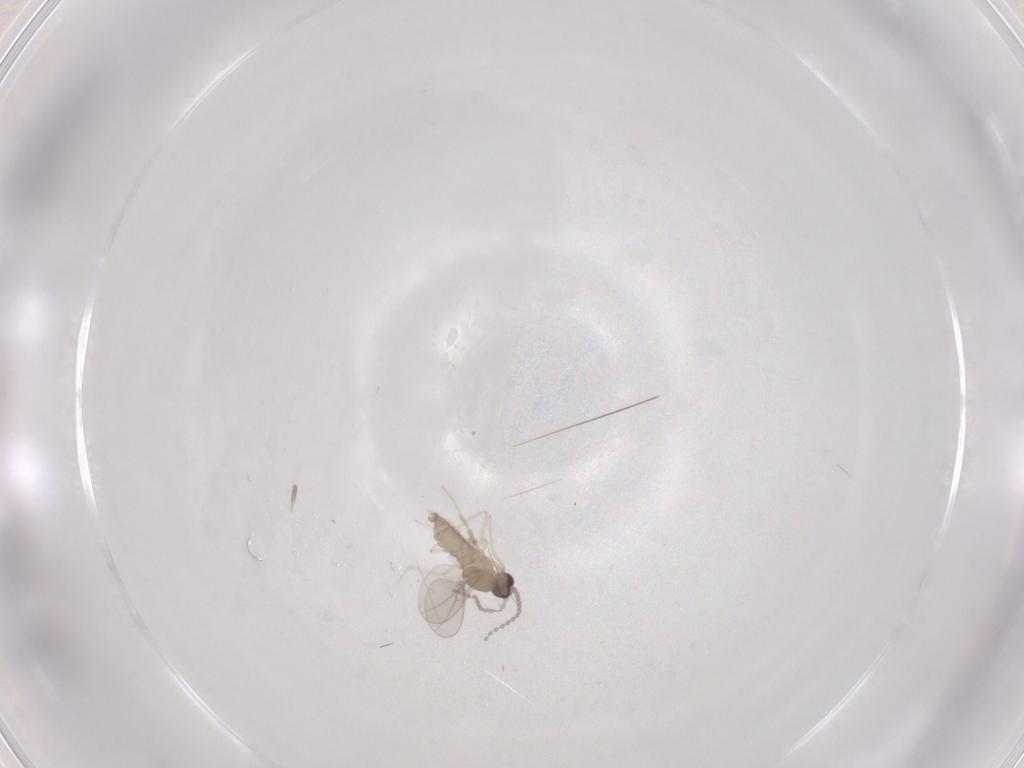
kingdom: Animalia
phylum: Arthropoda
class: Insecta
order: Diptera
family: Cecidomyiidae
